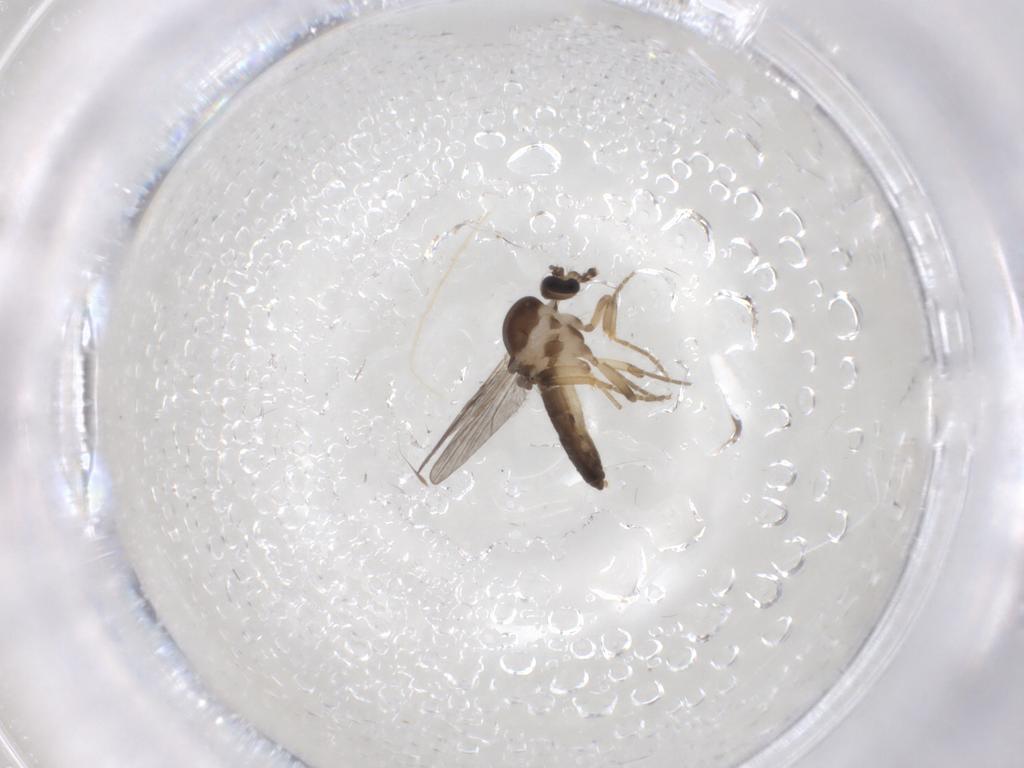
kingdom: Animalia
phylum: Arthropoda
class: Insecta
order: Diptera
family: Ceratopogonidae
